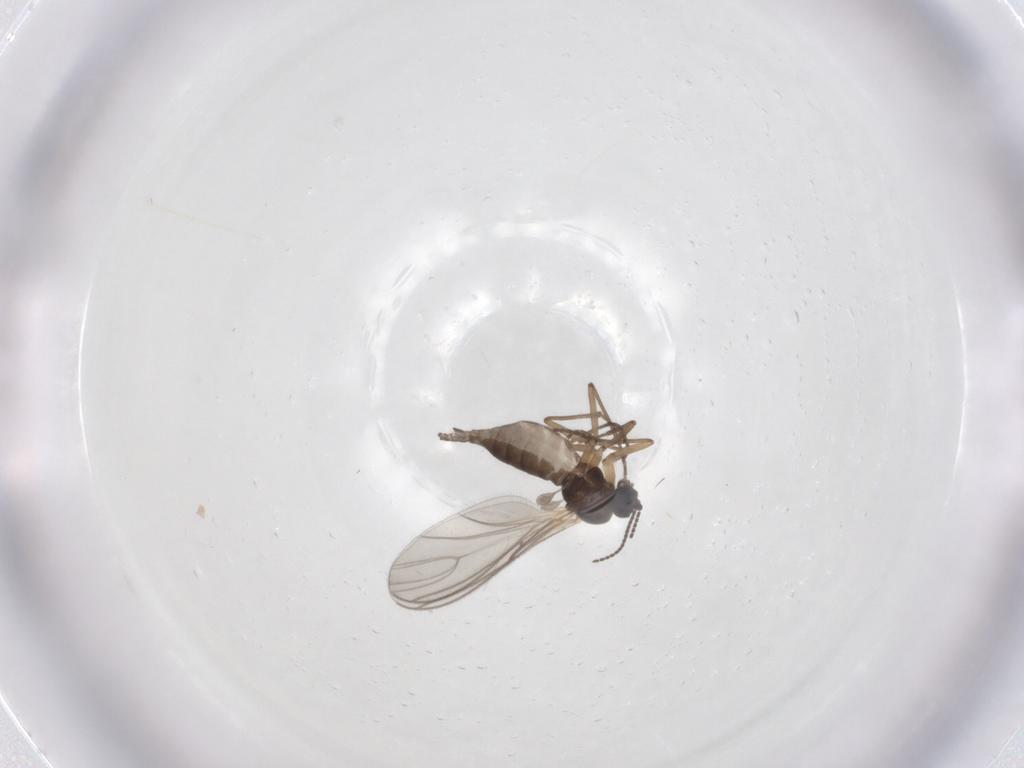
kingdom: Animalia
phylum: Arthropoda
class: Insecta
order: Diptera
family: Sciaridae
